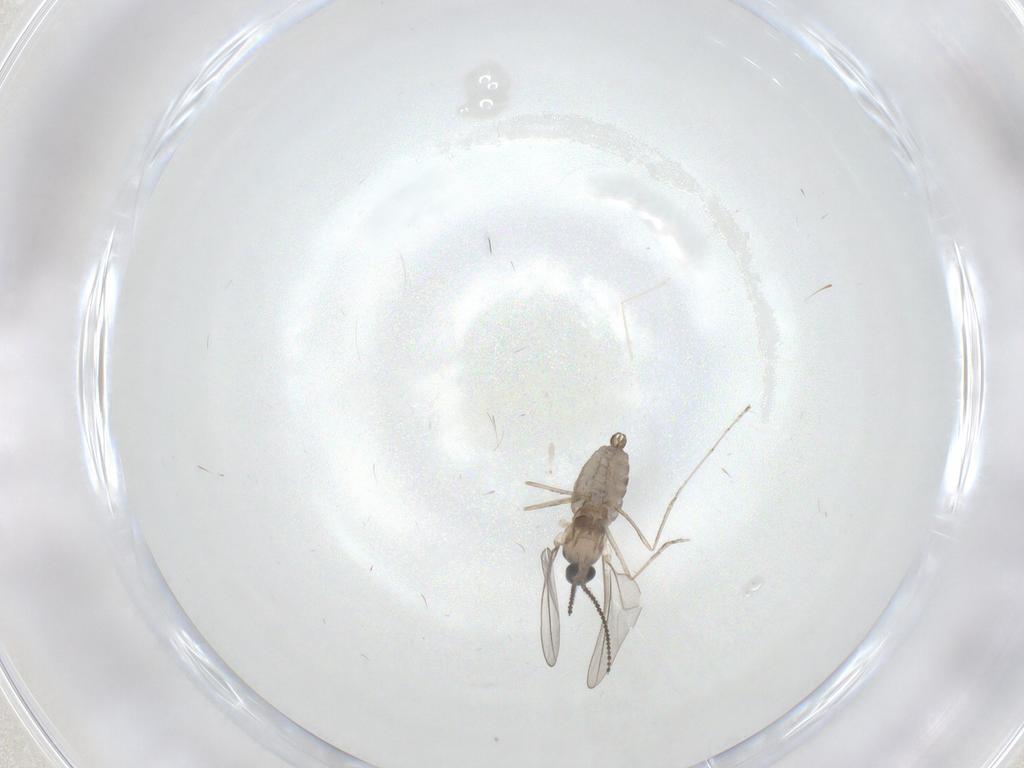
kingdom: Animalia
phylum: Arthropoda
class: Insecta
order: Diptera
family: Cecidomyiidae
